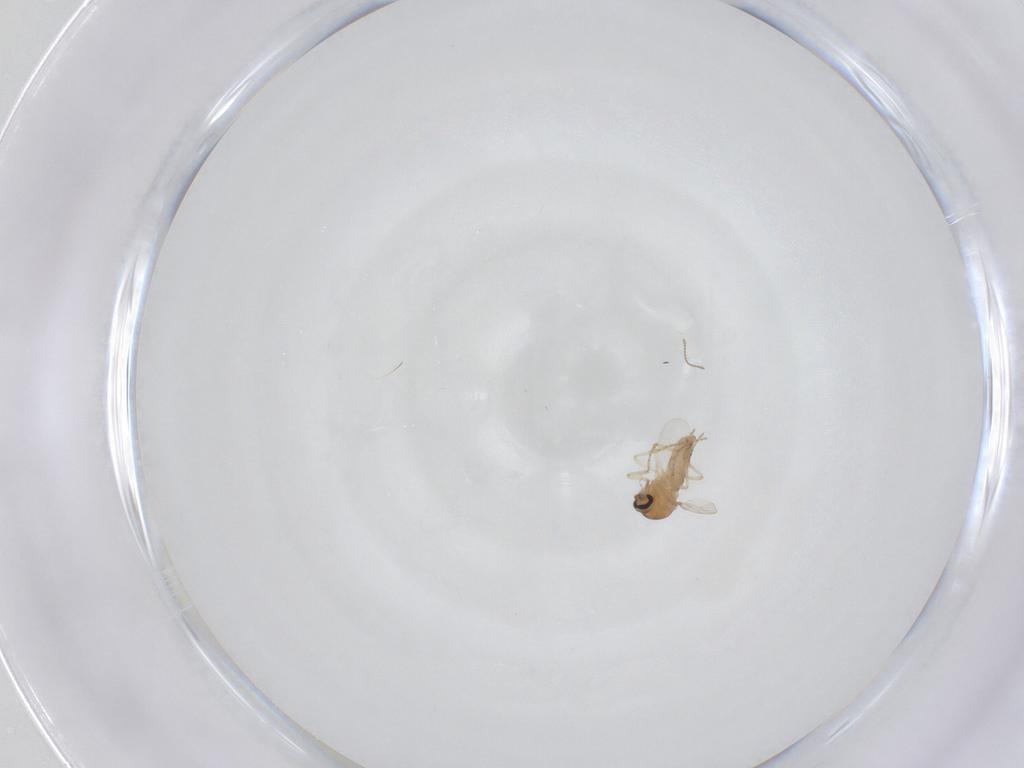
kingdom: Animalia
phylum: Arthropoda
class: Insecta
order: Diptera
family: Ceratopogonidae
